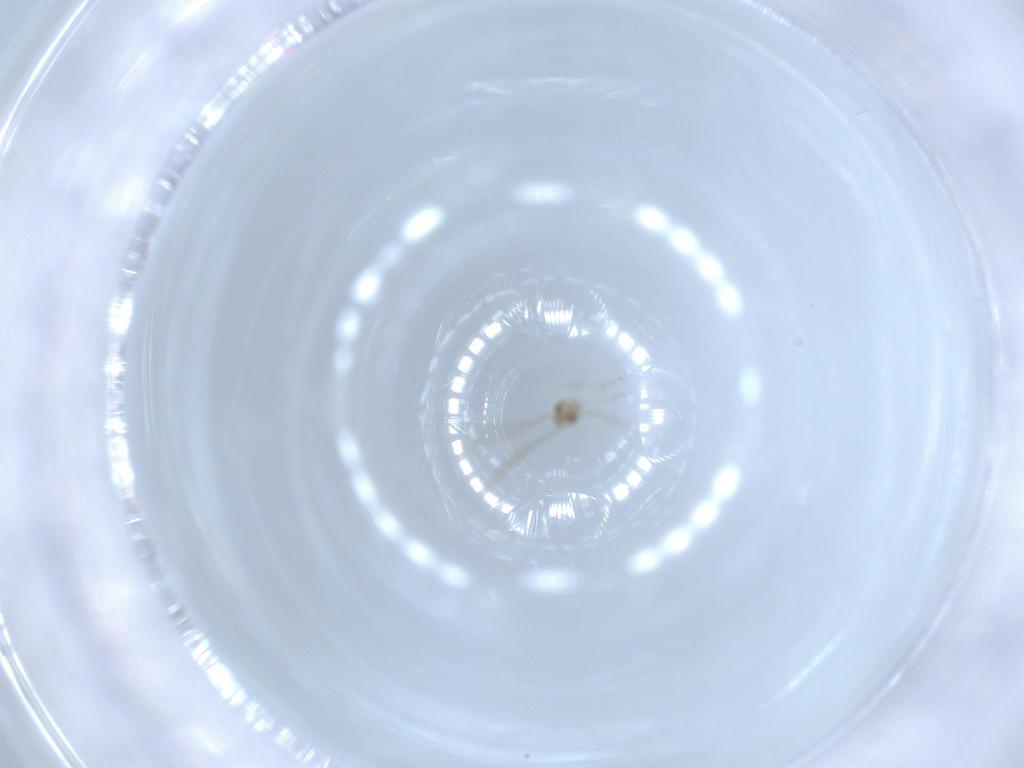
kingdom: Animalia
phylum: Arthropoda
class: Insecta
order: Diptera
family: Cecidomyiidae
